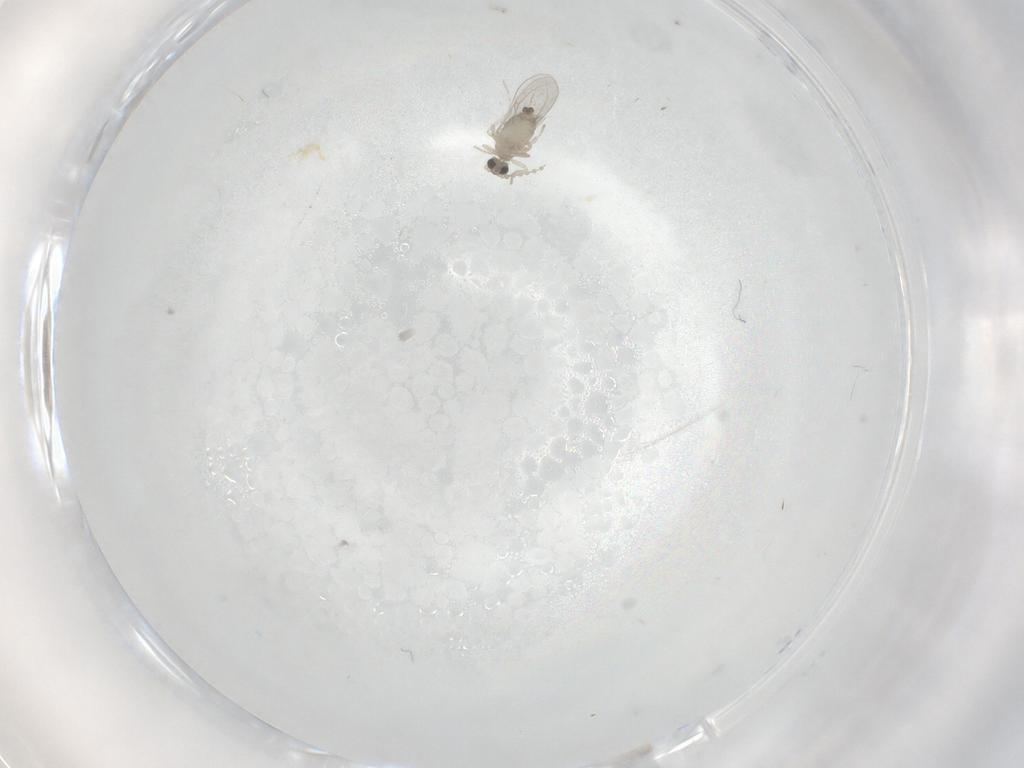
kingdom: Animalia
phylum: Arthropoda
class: Insecta
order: Diptera
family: Cecidomyiidae
